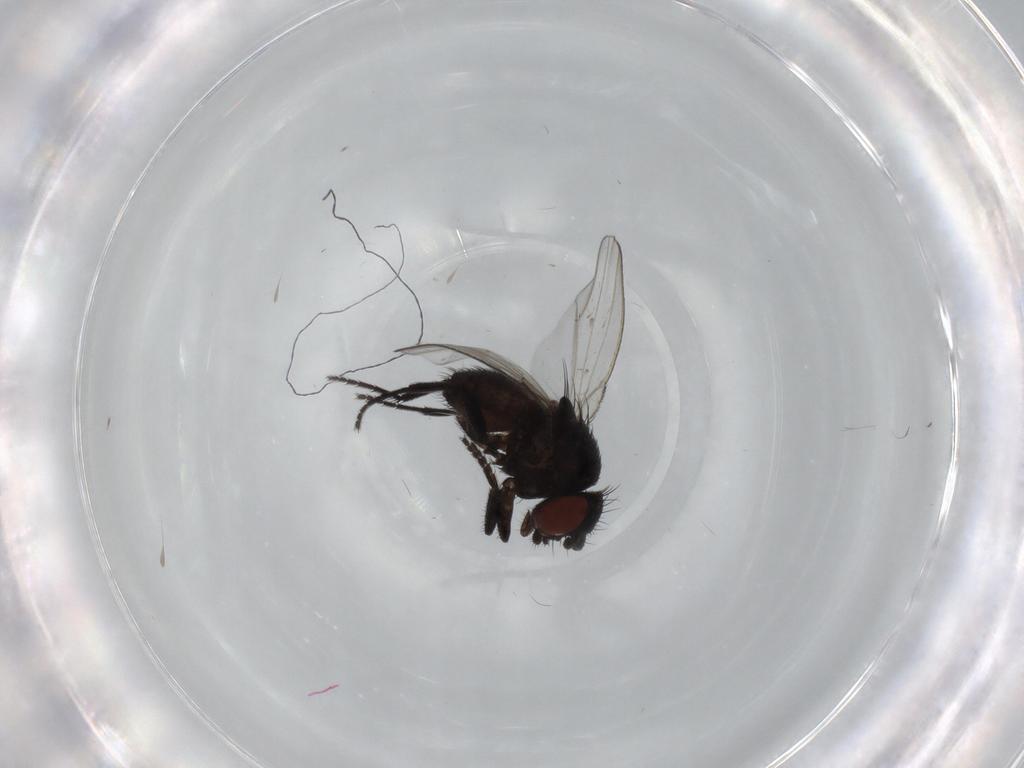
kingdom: Animalia
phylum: Arthropoda
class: Insecta
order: Diptera
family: Milichiidae
